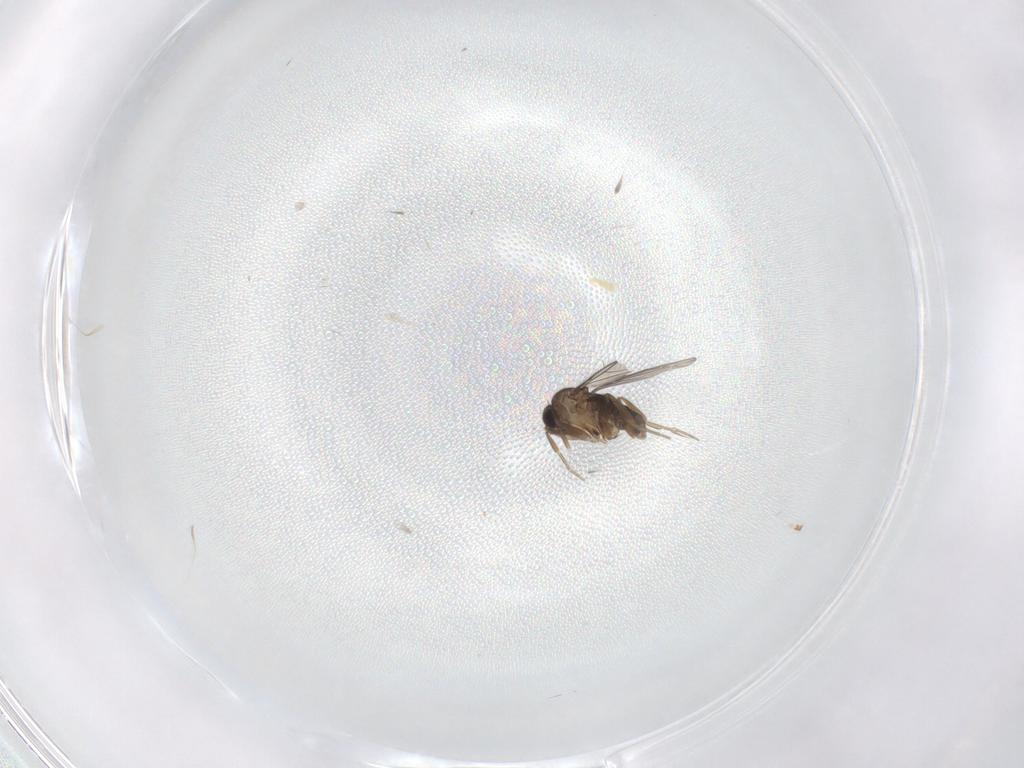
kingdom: Animalia
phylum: Arthropoda
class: Insecta
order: Diptera
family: Phoridae
